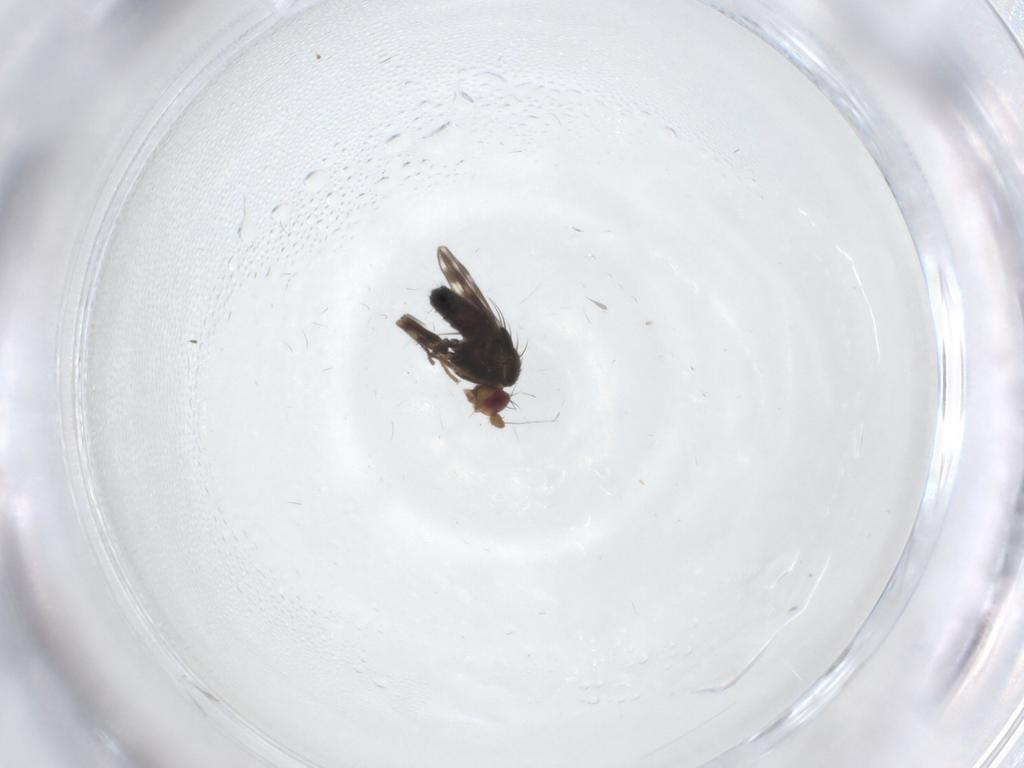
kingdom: Animalia
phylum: Arthropoda
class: Insecta
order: Diptera
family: Sphaeroceridae
